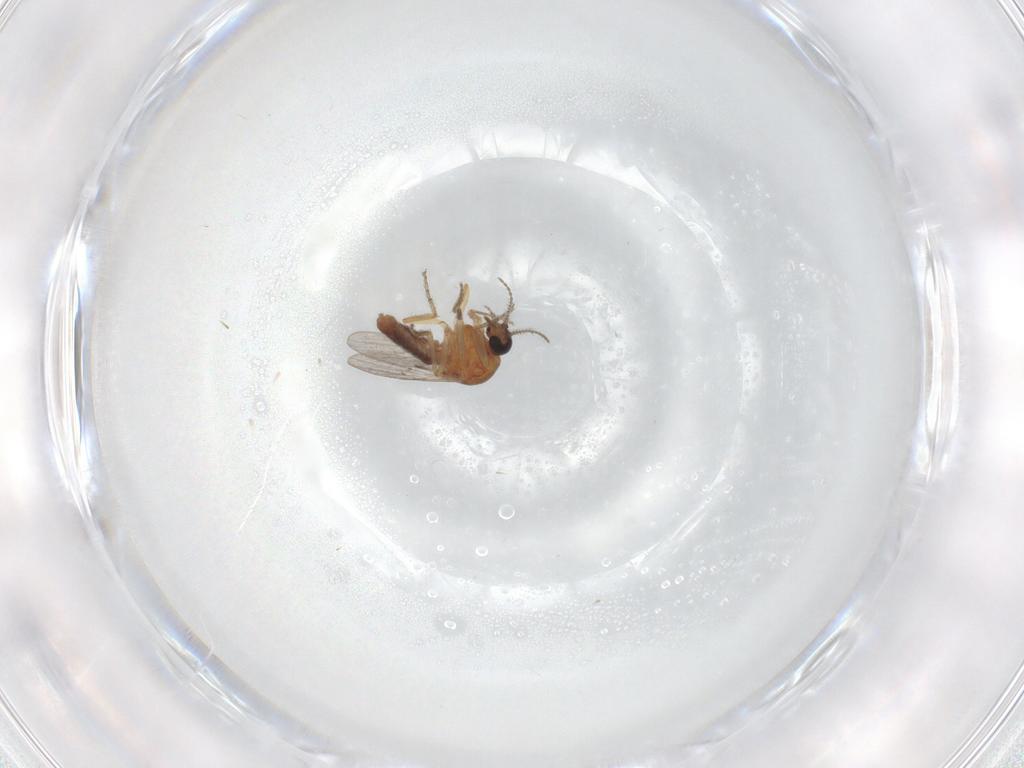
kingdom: Animalia
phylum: Arthropoda
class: Insecta
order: Diptera
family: Ceratopogonidae
